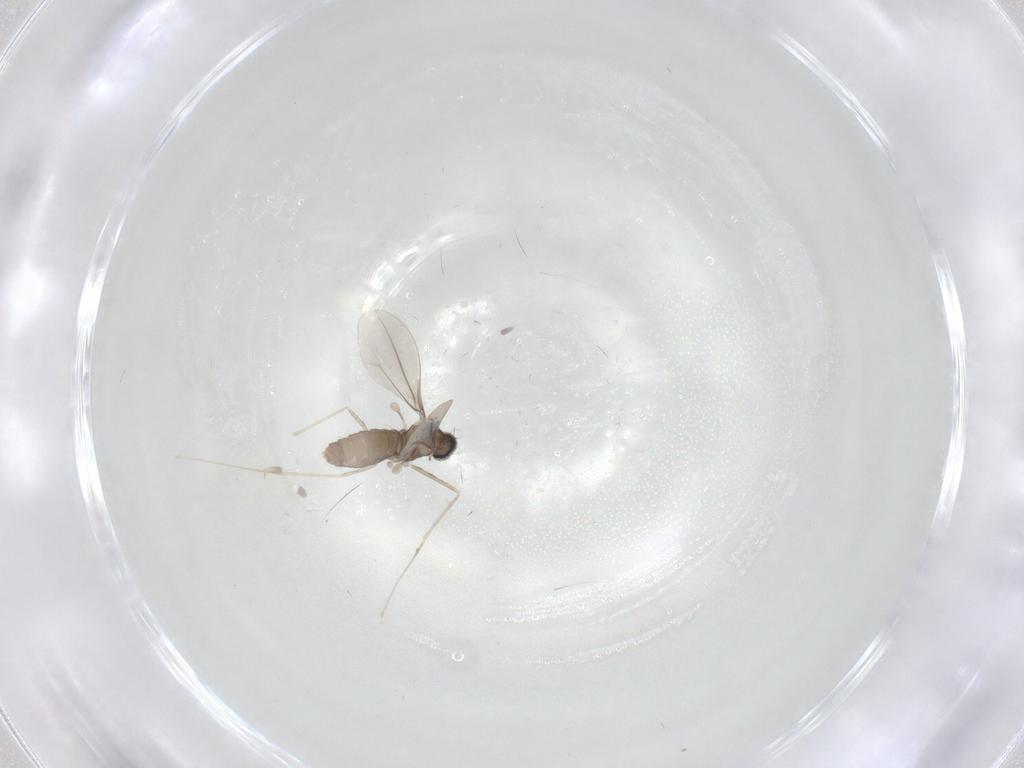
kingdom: Animalia
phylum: Arthropoda
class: Insecta
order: Diptera
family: Cecidomyiidae
